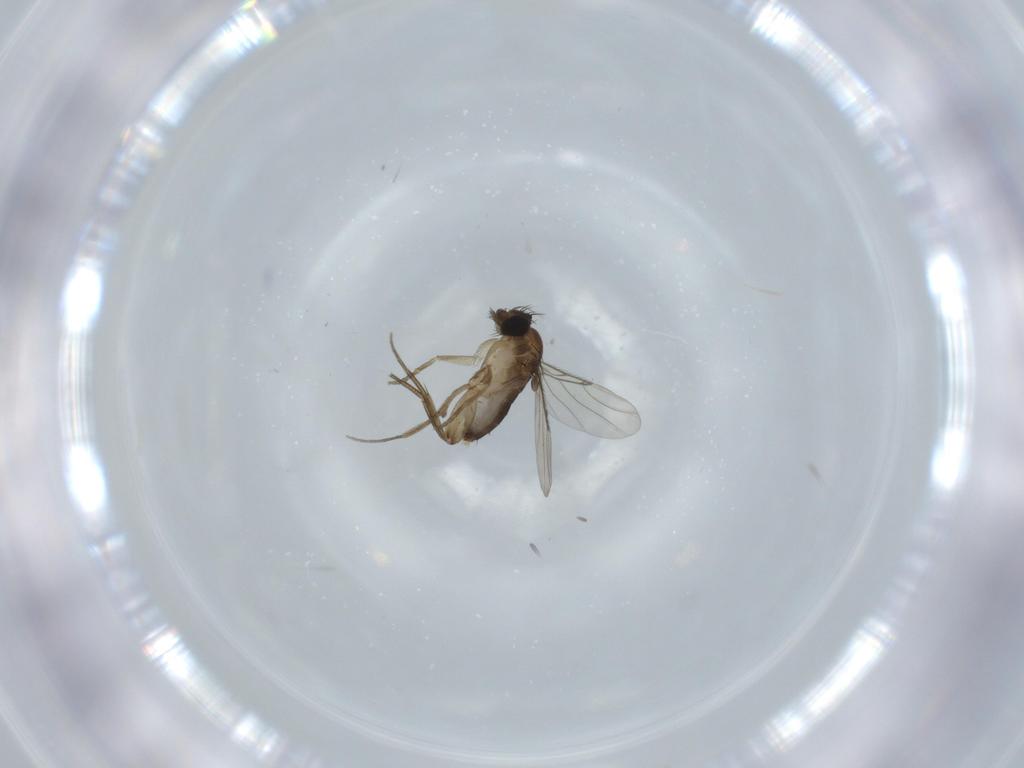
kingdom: Animalia
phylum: Arthropoda
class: Insecta
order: Diptera
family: Phoridae
